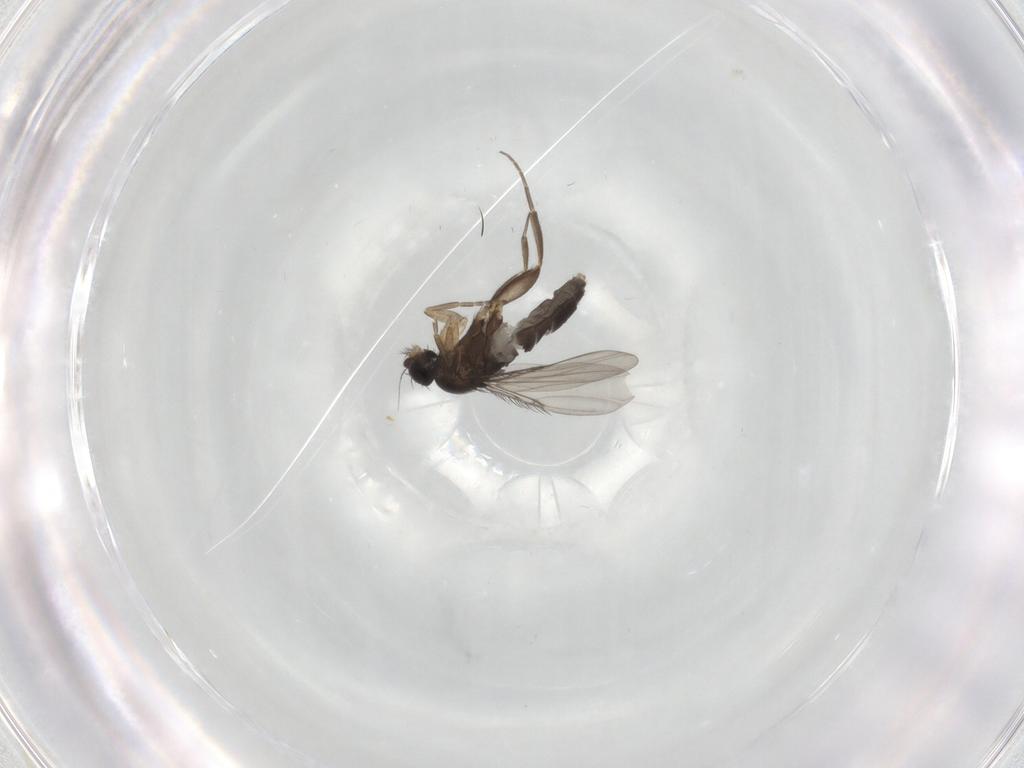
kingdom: Animalia
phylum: Arthropoda
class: Insecta
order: Diptera
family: Phoridae
